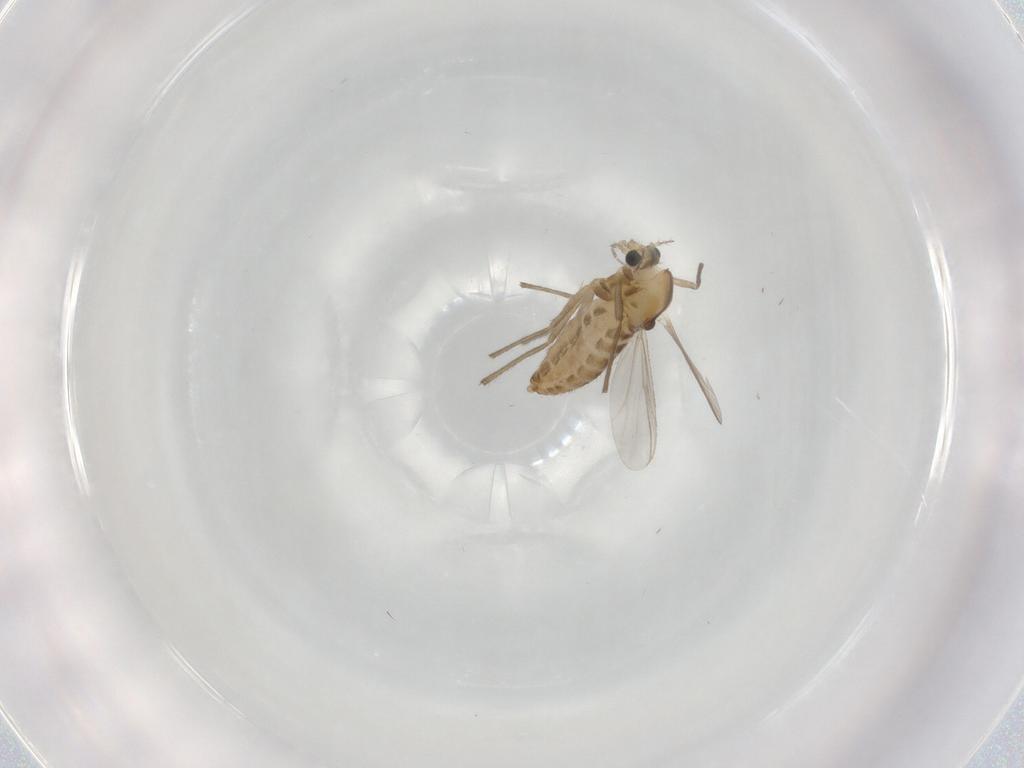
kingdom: Animalia
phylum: Arthropoda
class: Insecta
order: Diptera
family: Chironomidae
